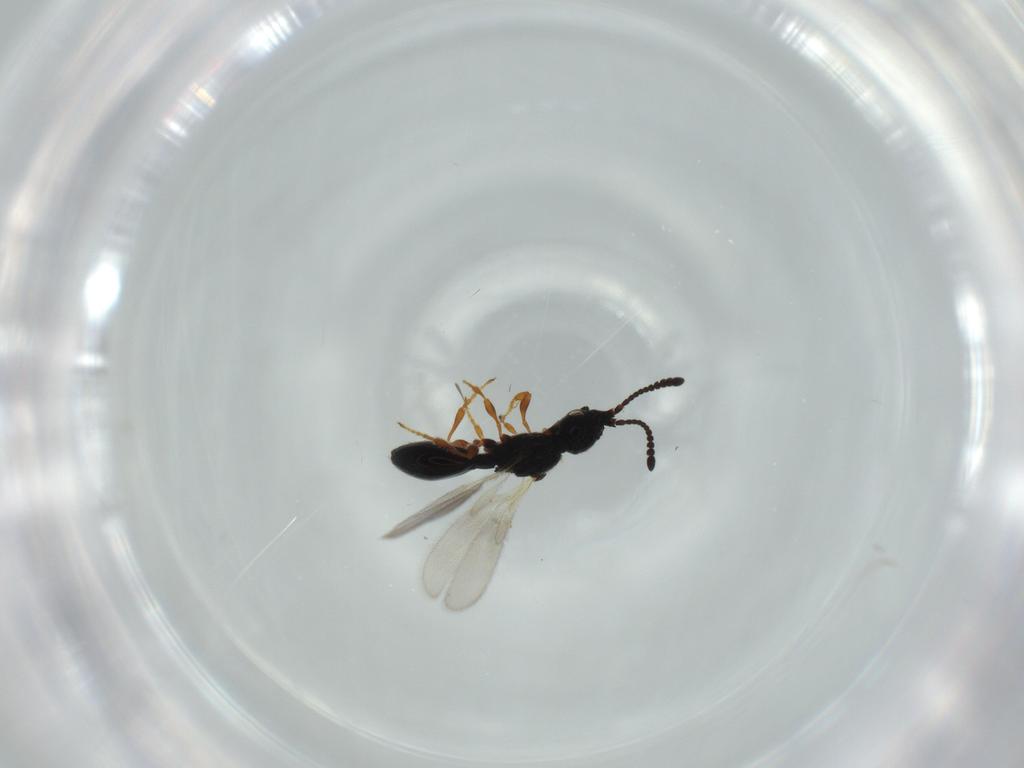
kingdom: Animalia
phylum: Arthropoda
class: Insecta
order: Hymenoptera
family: Diapriidae
